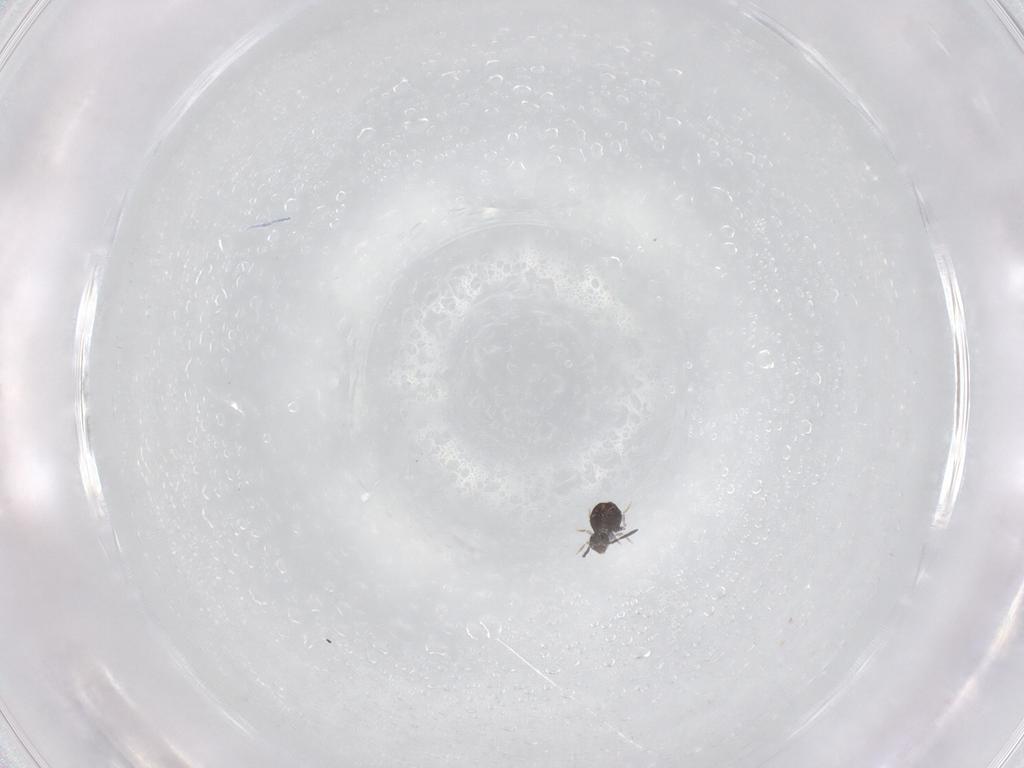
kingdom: Animalia
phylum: Arthropoda
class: Collembola
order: Symphypleona
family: Katiannidae
